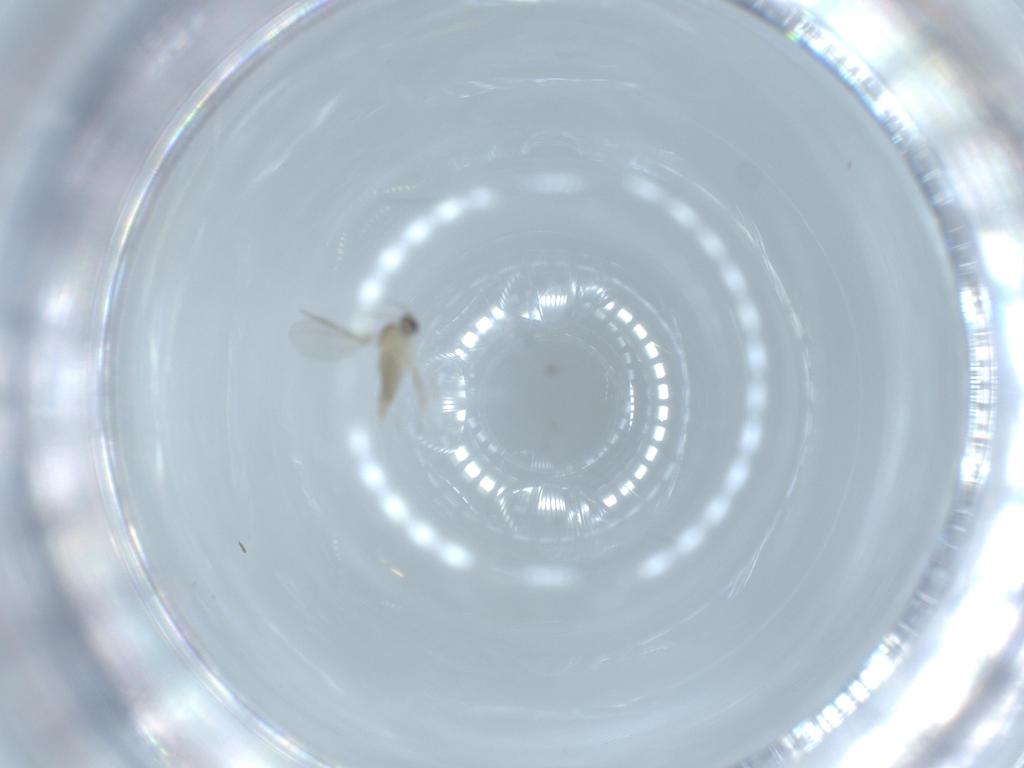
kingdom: Animalia
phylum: Arthropoda
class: Insecta
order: Diptera
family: Cecidomyiidae
